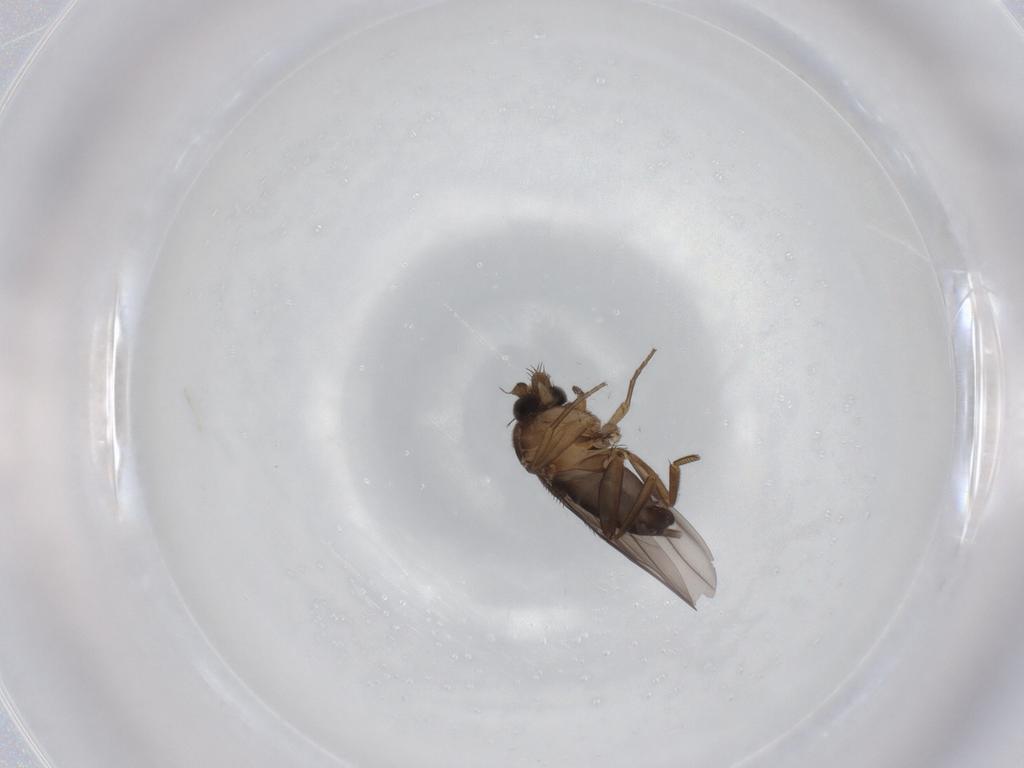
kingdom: Animalia
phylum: Arthropoda
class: Insecta
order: Diptera
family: Phoridae
